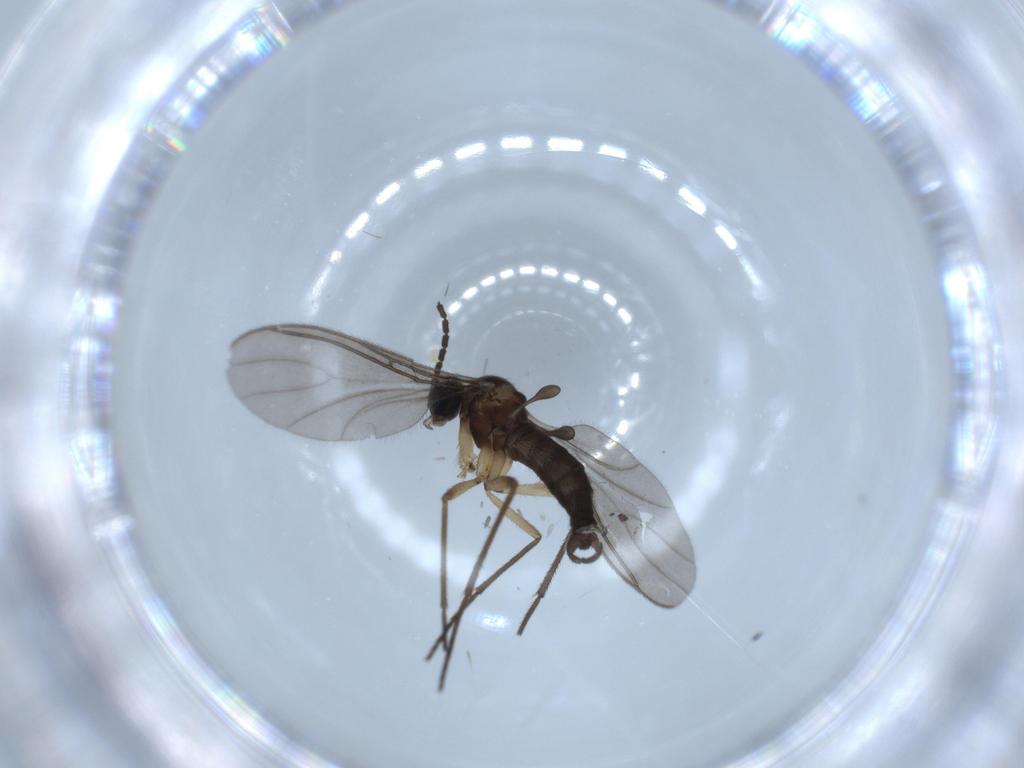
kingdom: Animalia
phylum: Arthropoda
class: Insecta
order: Diptera
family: Sciaridae
